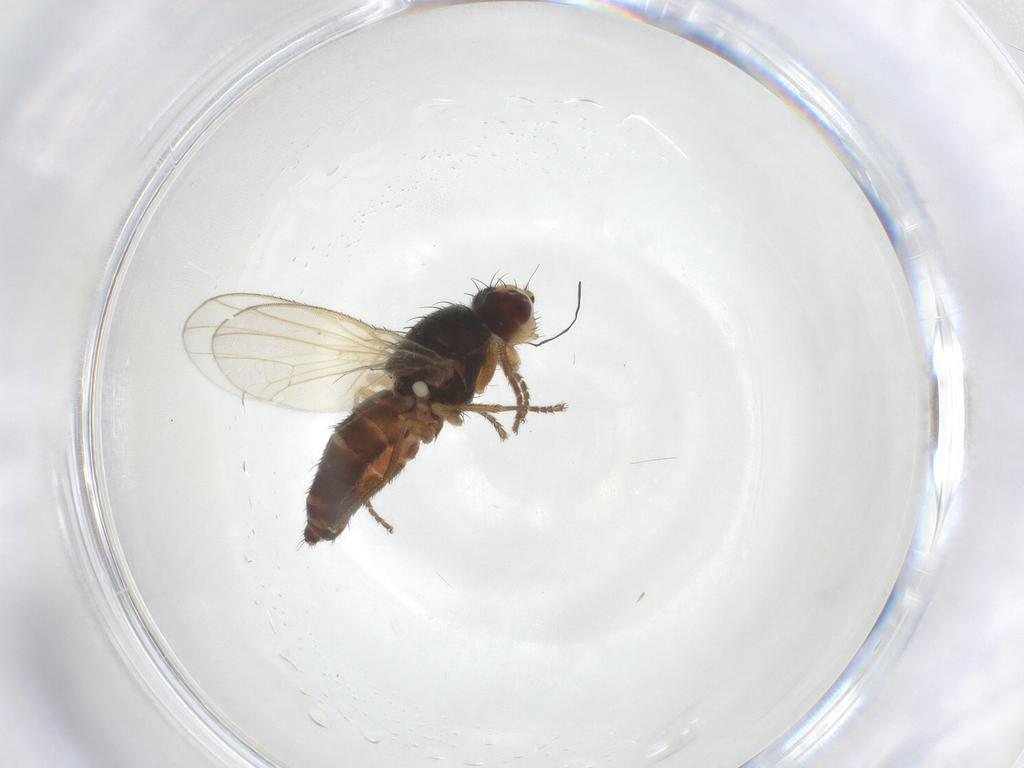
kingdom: Animalia
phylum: Arthropoda
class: Insecta
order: Diptera
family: Heleomyzidae
